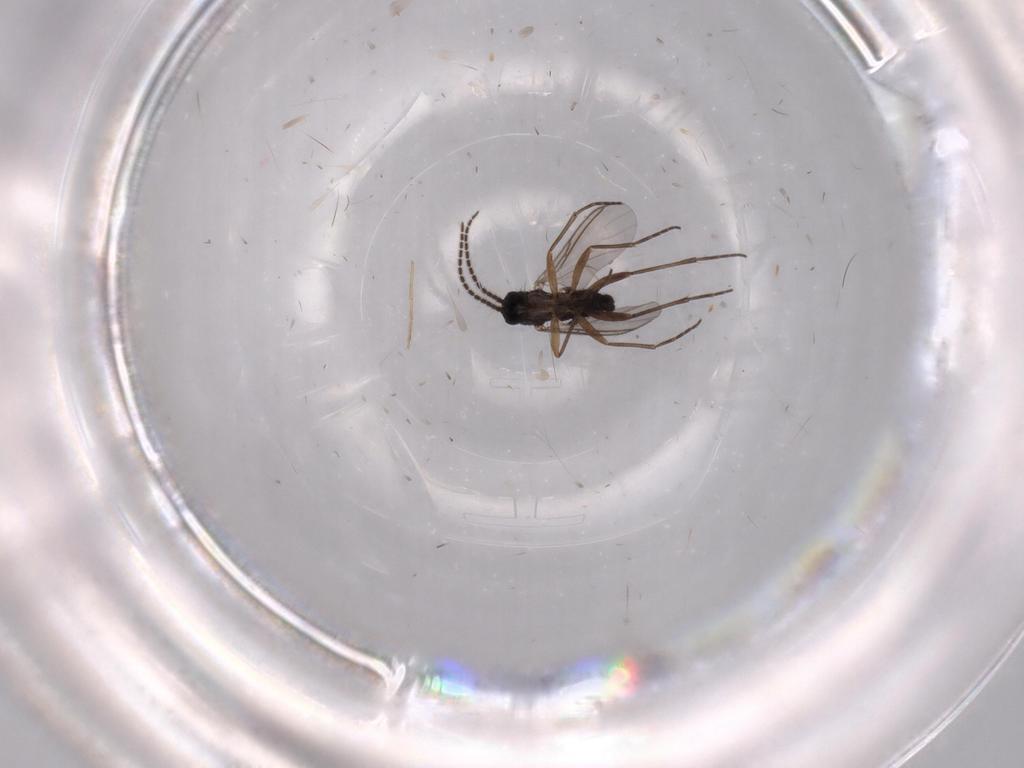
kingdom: Animalia
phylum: Arthropoda
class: Insecta
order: Diptera
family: Sciaridae
